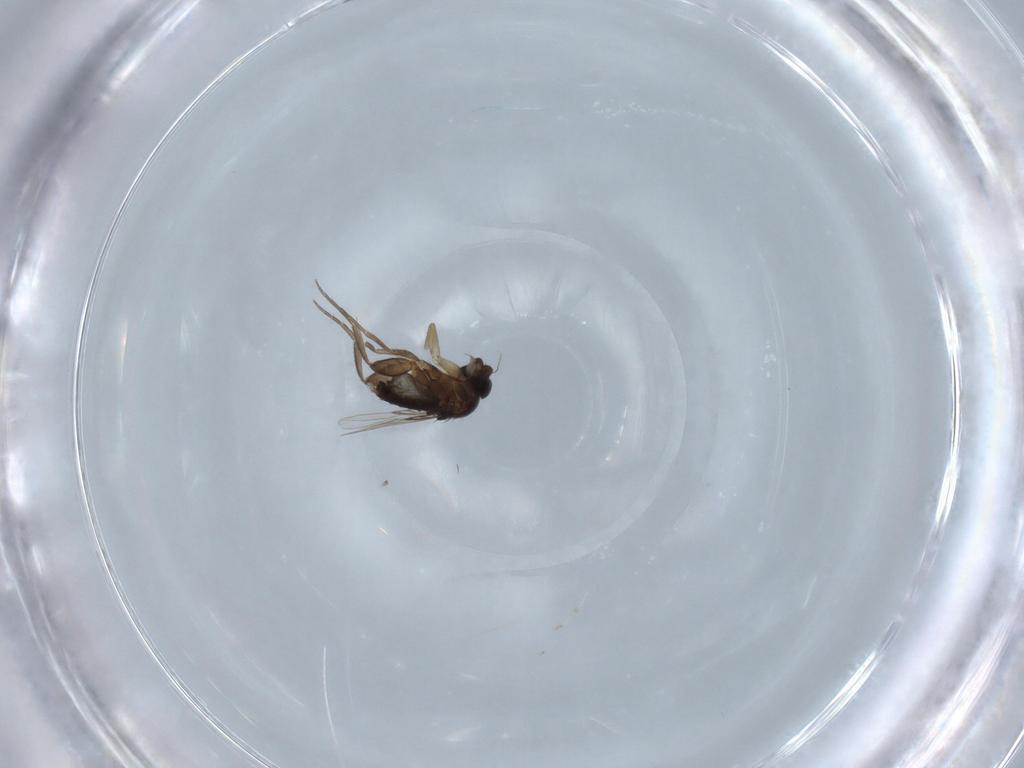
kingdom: Animalia
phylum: Arthropoda
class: Insecta
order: Diptera
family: Phoridae
